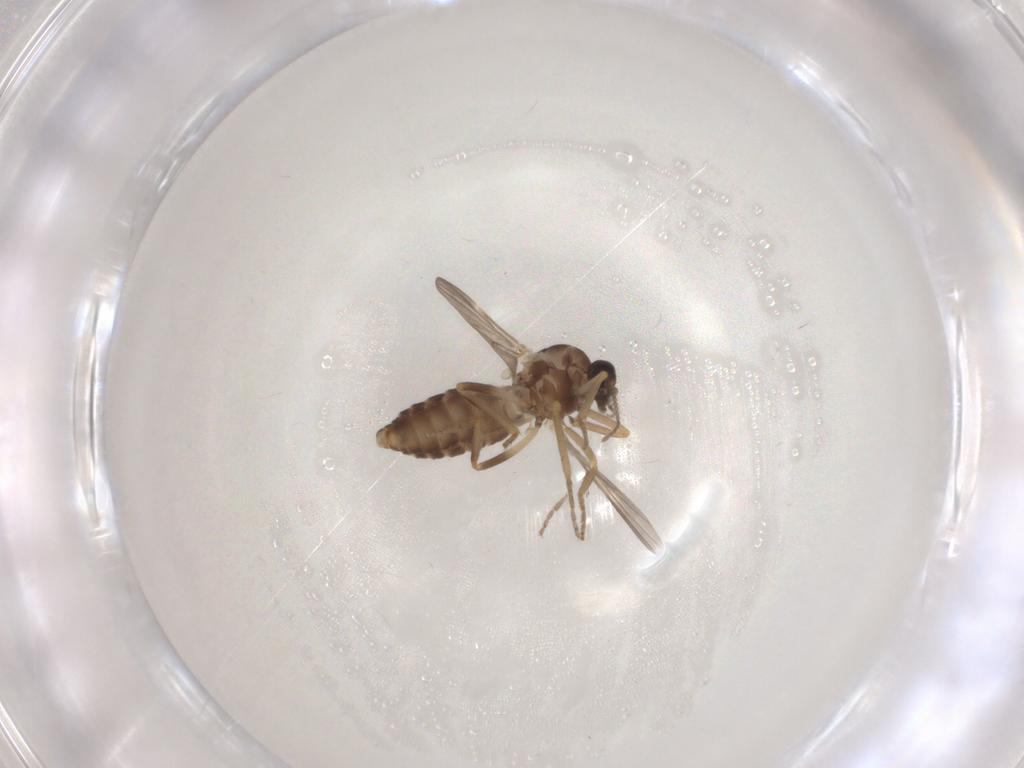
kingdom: Animalia
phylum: Arthropoda
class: Insecta
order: Diptera
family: Ceratopogonidae
